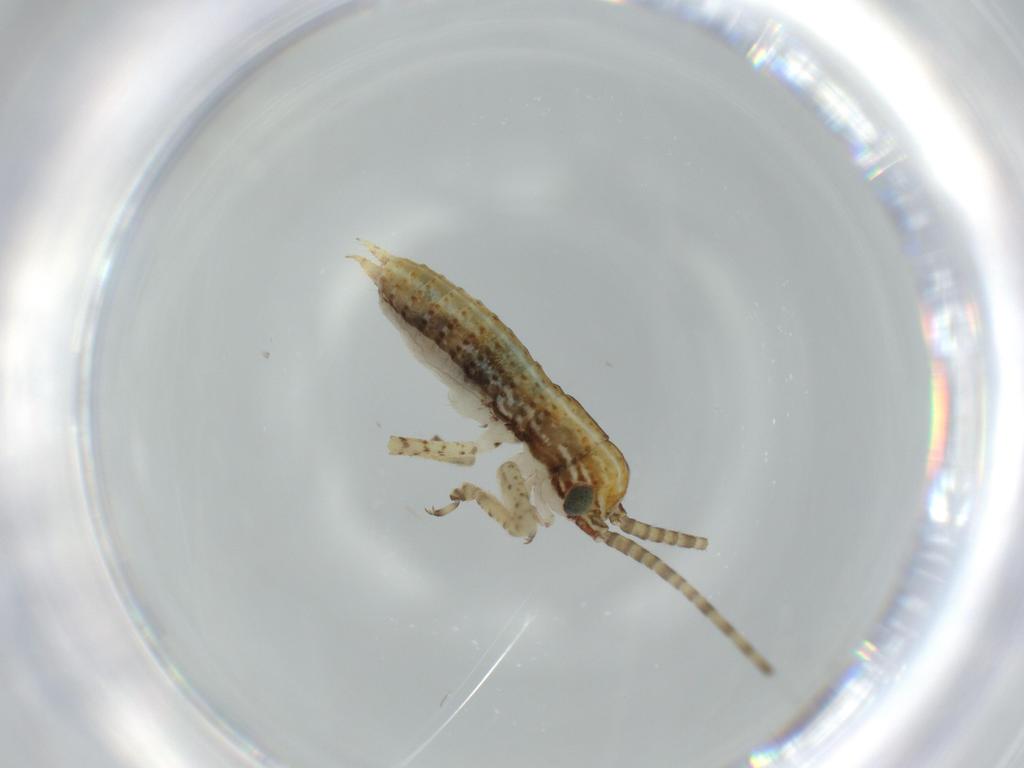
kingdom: Animalia
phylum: Arthropoda
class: Insecta
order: Orthoptera
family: Gryllidae
